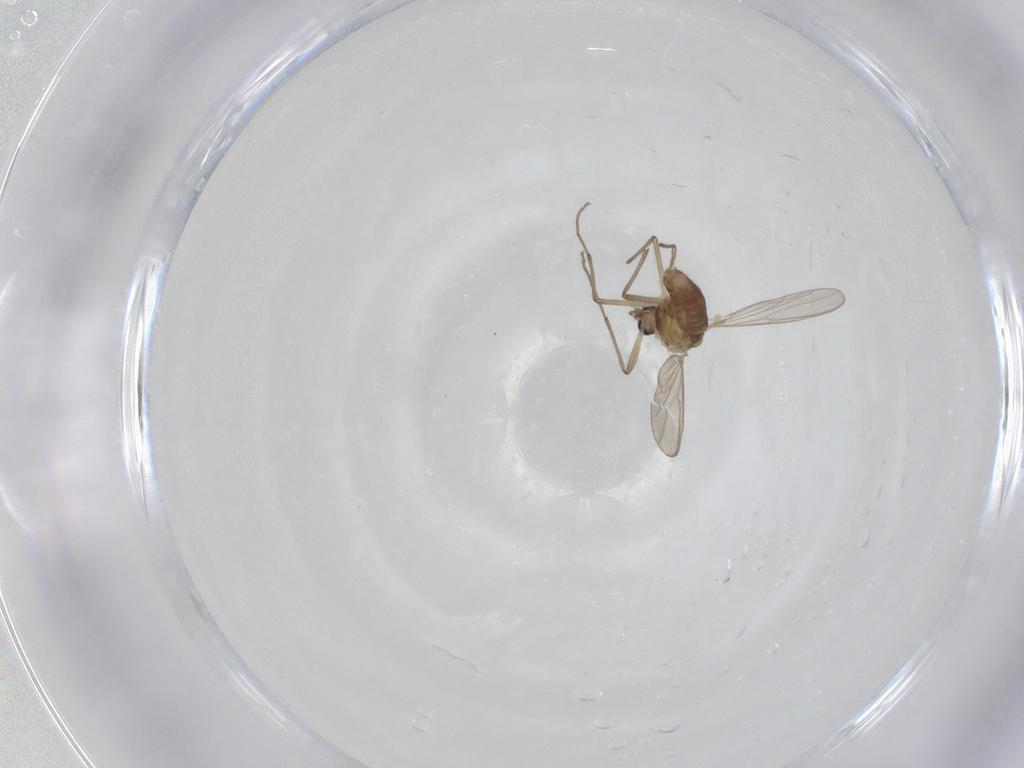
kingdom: Animalia
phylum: Arthropoda
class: Insecta
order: Diptera
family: Chironomidae
